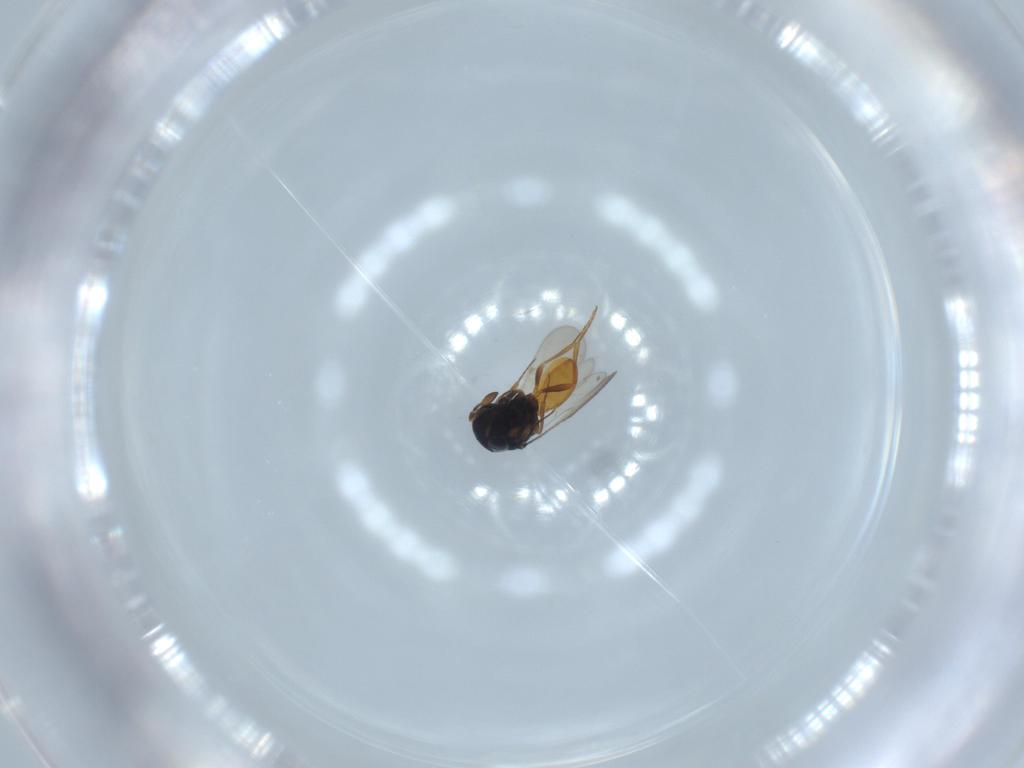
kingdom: Animalia
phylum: Arthropoda
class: Insecta
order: Hymenoptera
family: Scelionidae
